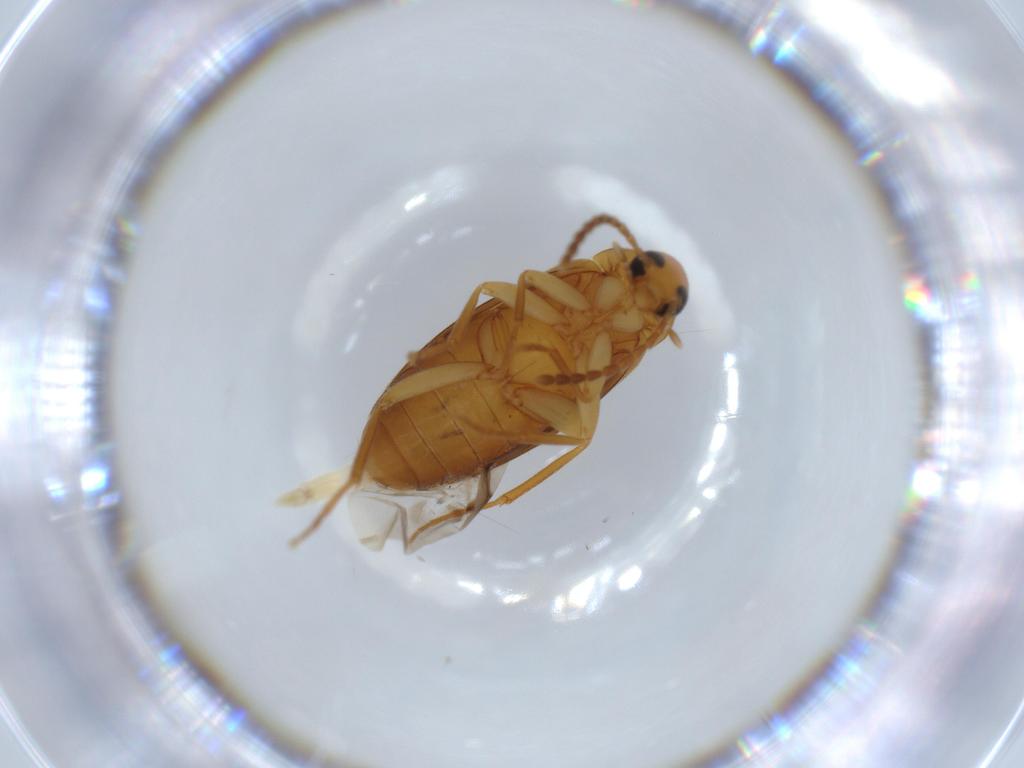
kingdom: Animalia
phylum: Arthropoda
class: Insecta
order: Coleoptera
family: Scraptiidae
